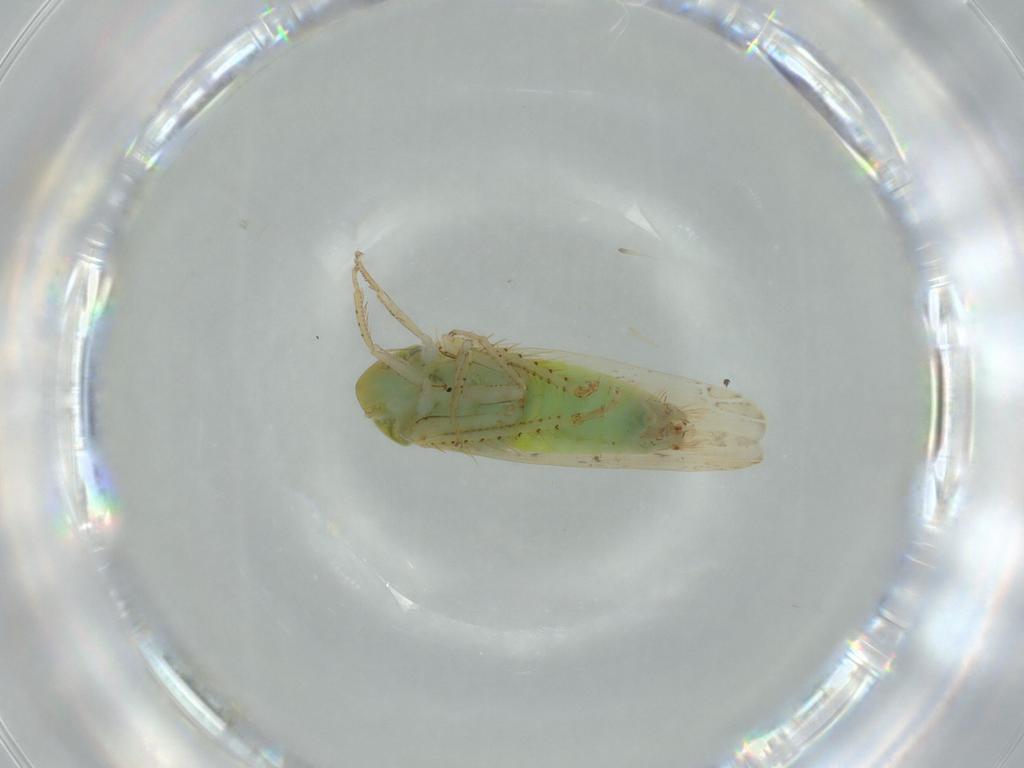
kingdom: Animalia
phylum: Arthropoda
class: Insecta
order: Hemiptera
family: Cicadellidae
